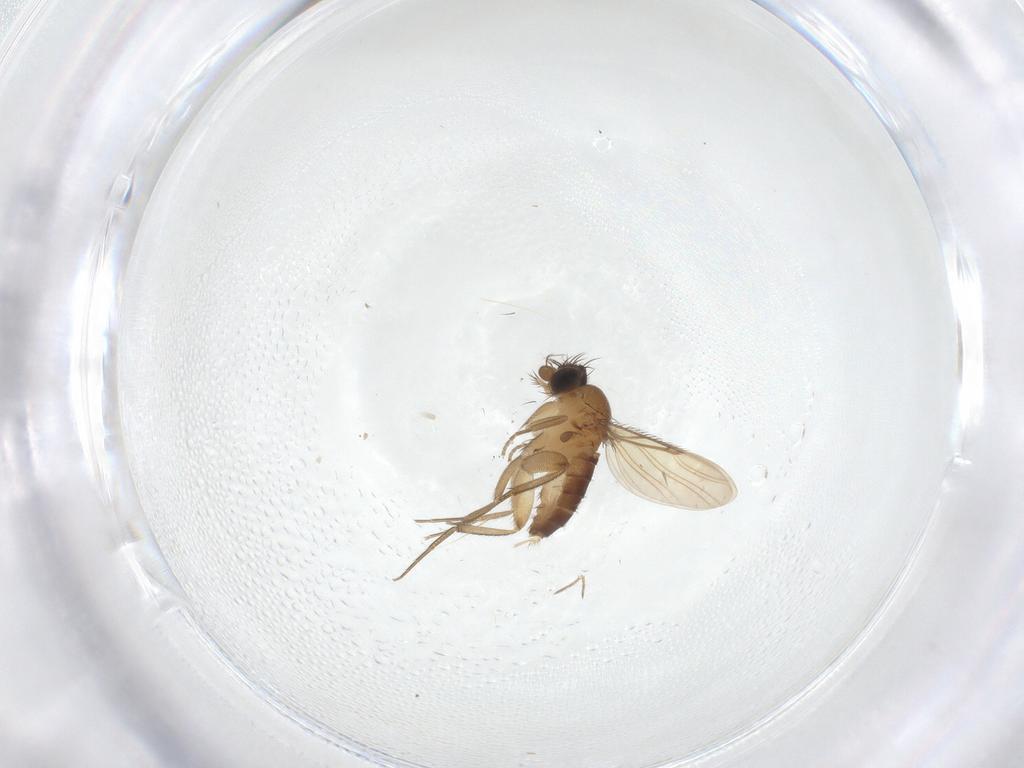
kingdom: Animalia
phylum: Arthropoda
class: Insecta
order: Diptera
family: Phoridae
